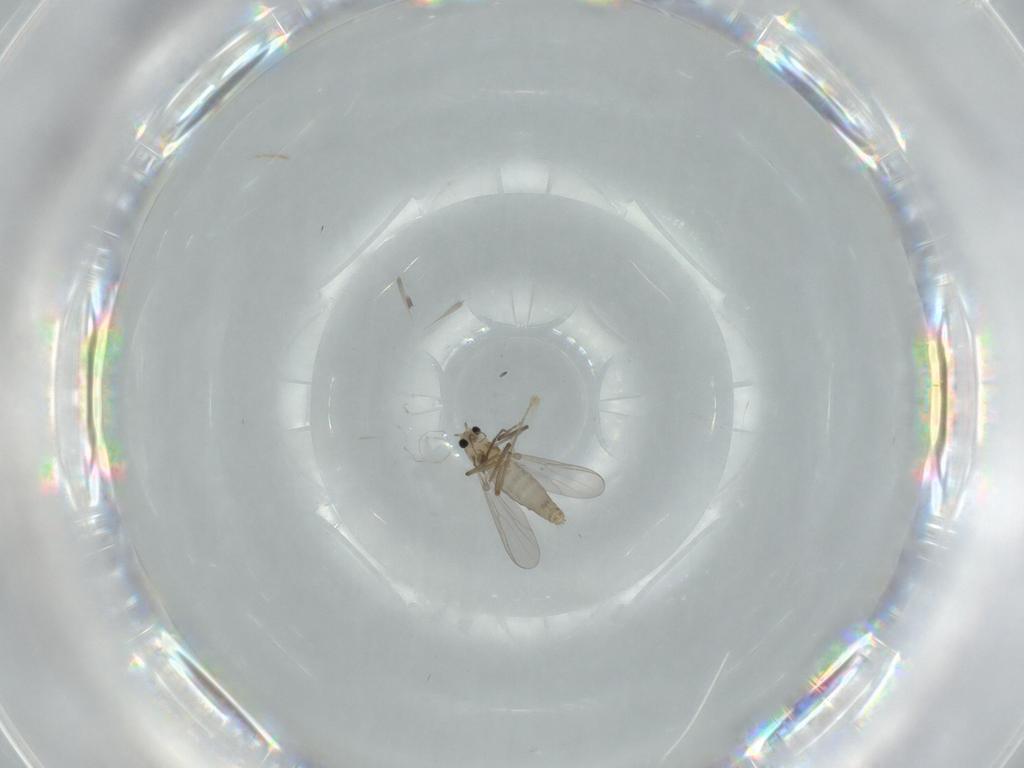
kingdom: Animalia
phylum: Arthropoda
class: Insecta
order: Diptera
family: Chironomidae
